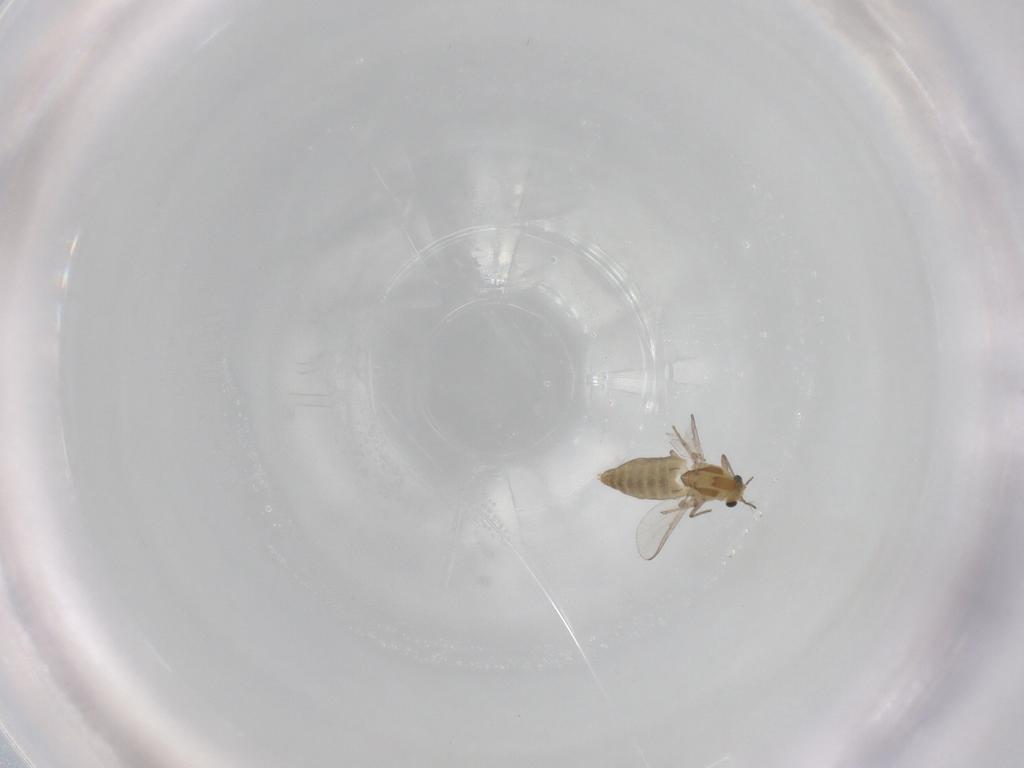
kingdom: Animalia
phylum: Arthropoda
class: Insecta
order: Diptera
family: Chironomidae
